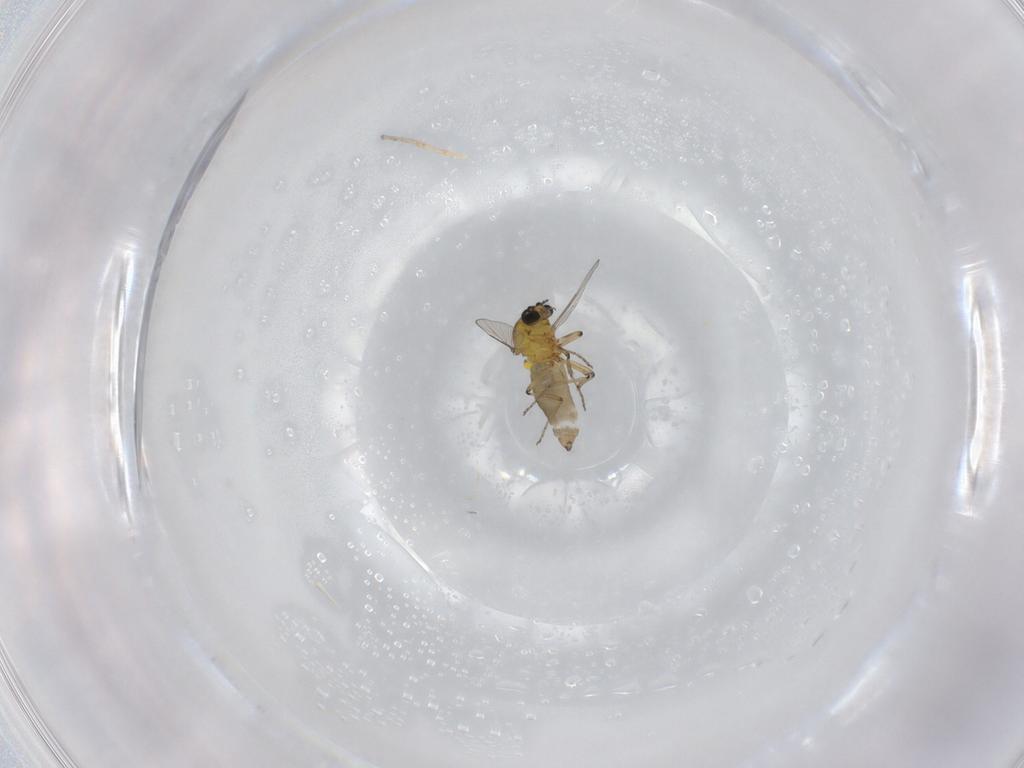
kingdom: Animalia
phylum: Arthropoda
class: Insecta
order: Diptera
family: Ceratopogonidae
